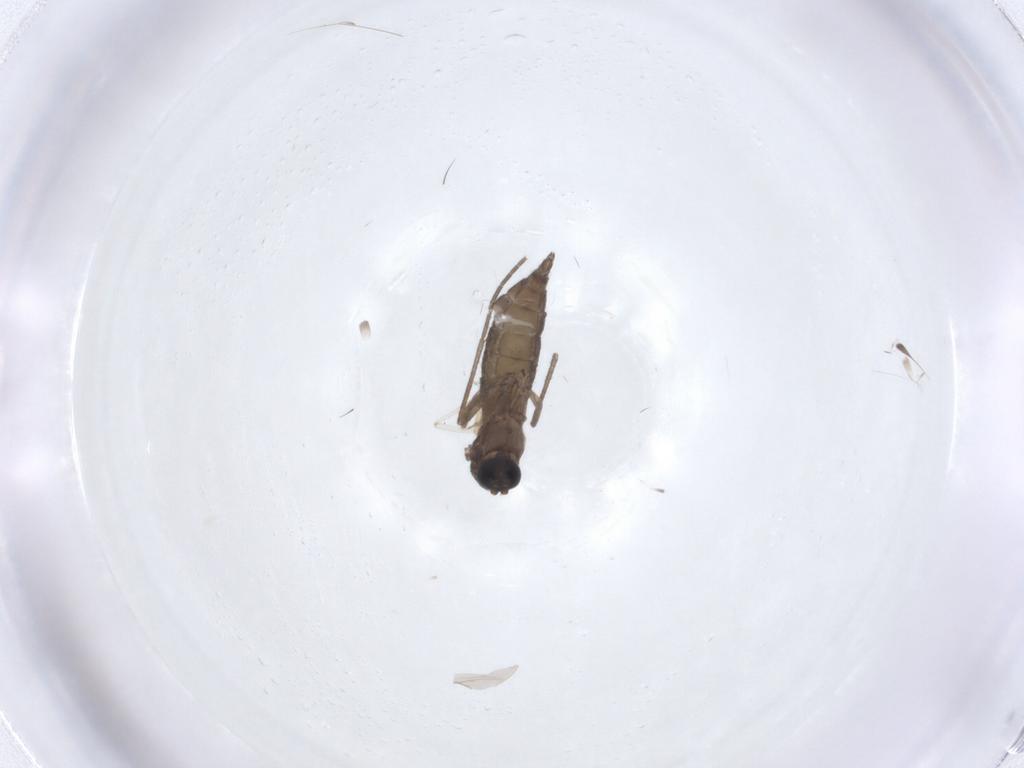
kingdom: Animalia
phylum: Arthropoda
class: Insecta
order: Diptera
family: Sciaridae
